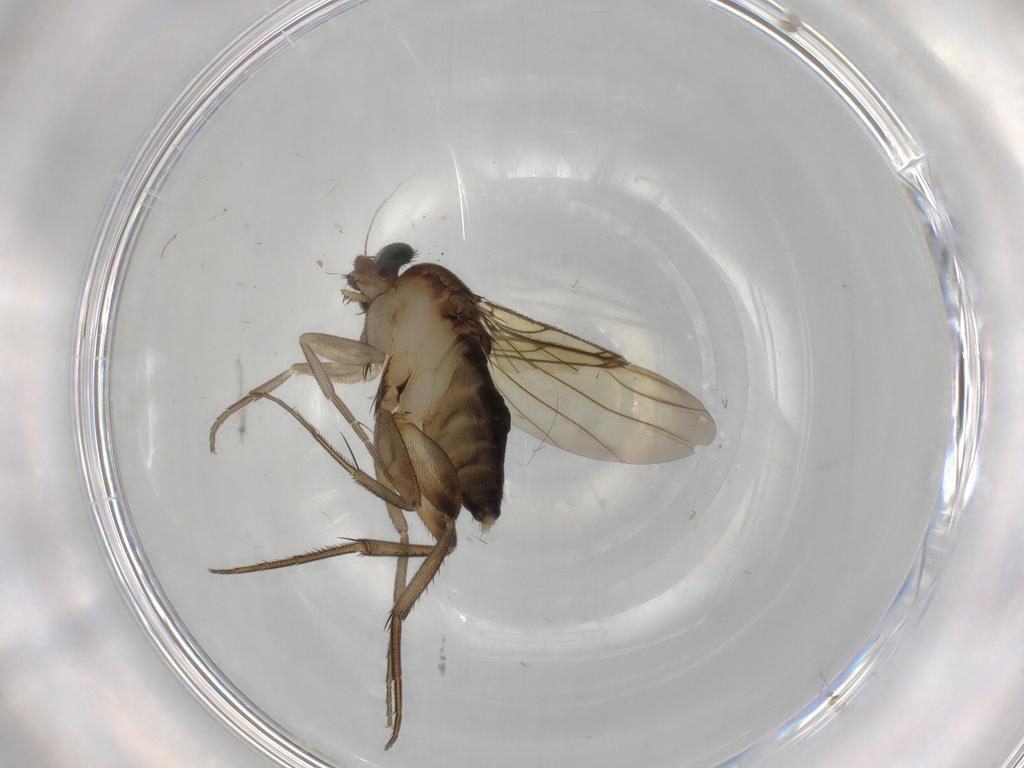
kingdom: Animalia
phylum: Arthropoda
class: Insecta
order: Diptera
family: Phoridae
